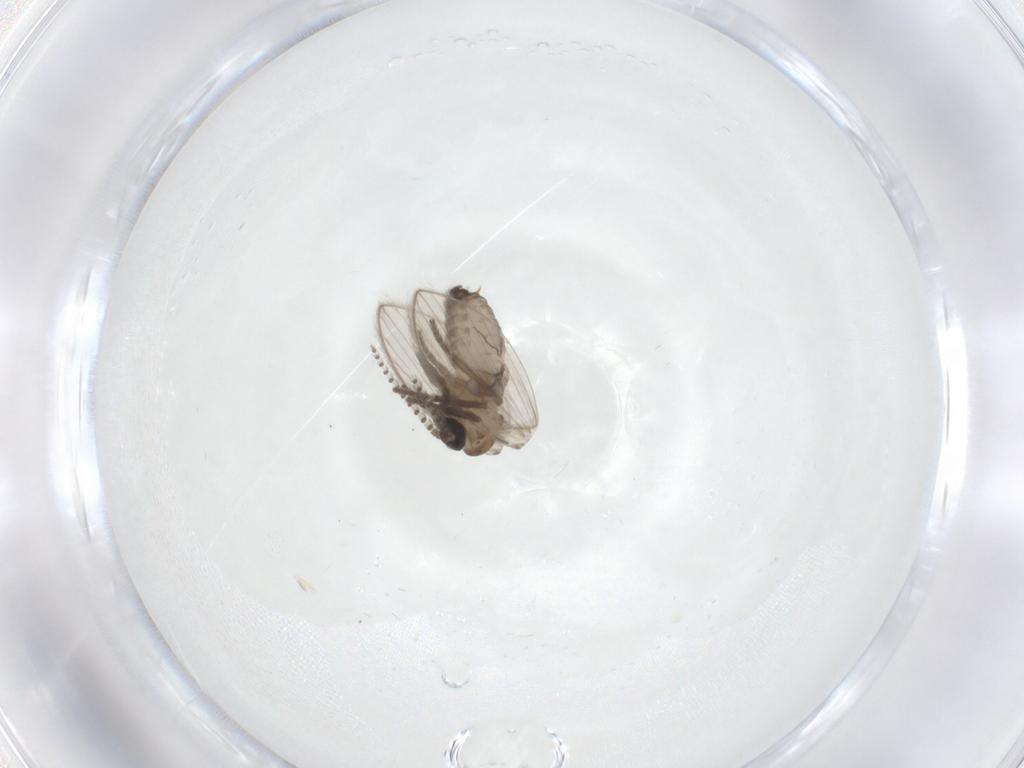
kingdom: Animalia
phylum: Arthropoda
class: Insecta
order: Diptera
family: Psychodidae
